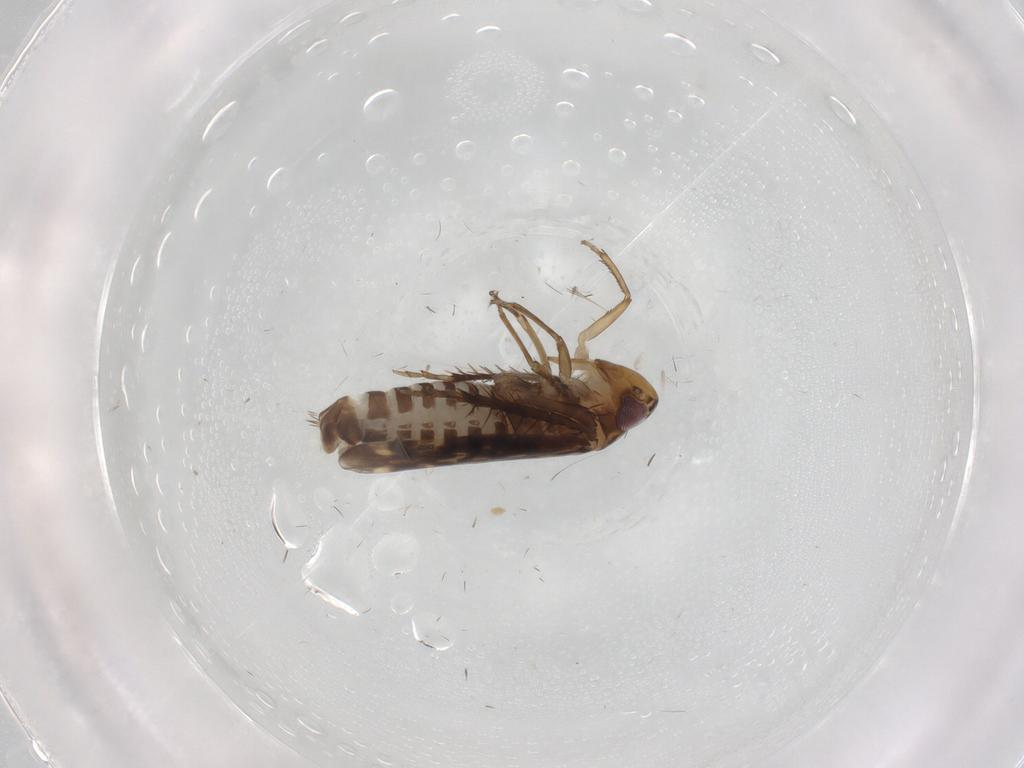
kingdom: Animalia
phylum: Arthropoda
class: Insecta
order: Hemiptera
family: Cicadellidae
